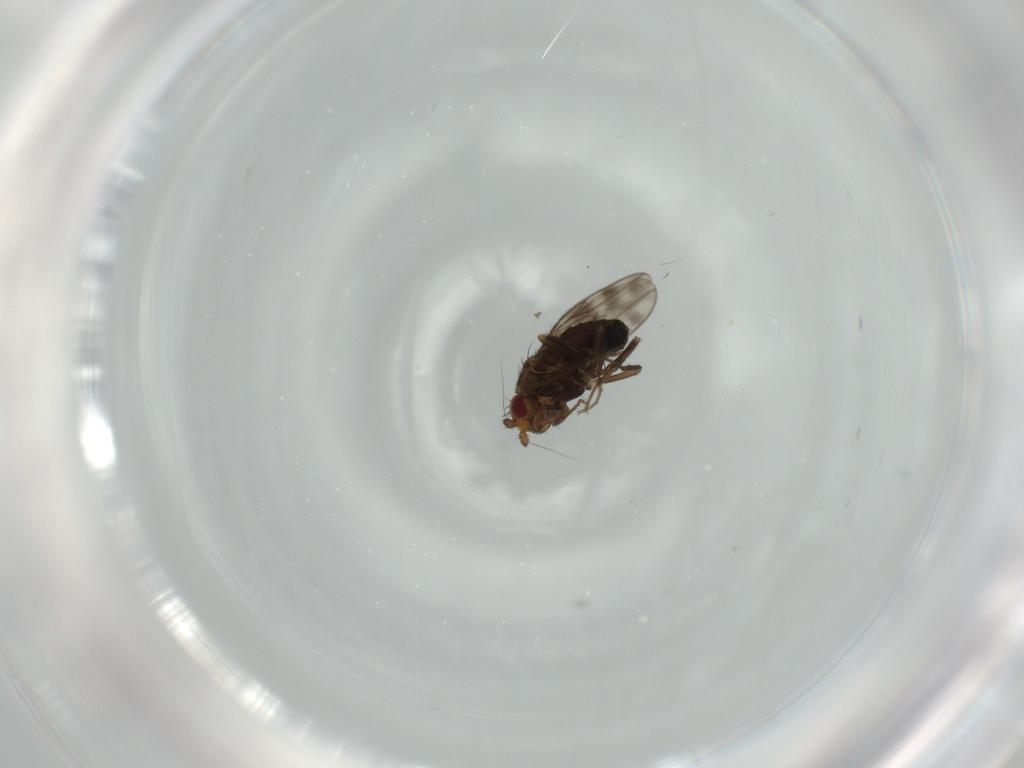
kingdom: Animalia
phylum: Arthropoda
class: Insecta
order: Diptera
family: Sphaeroceridae
